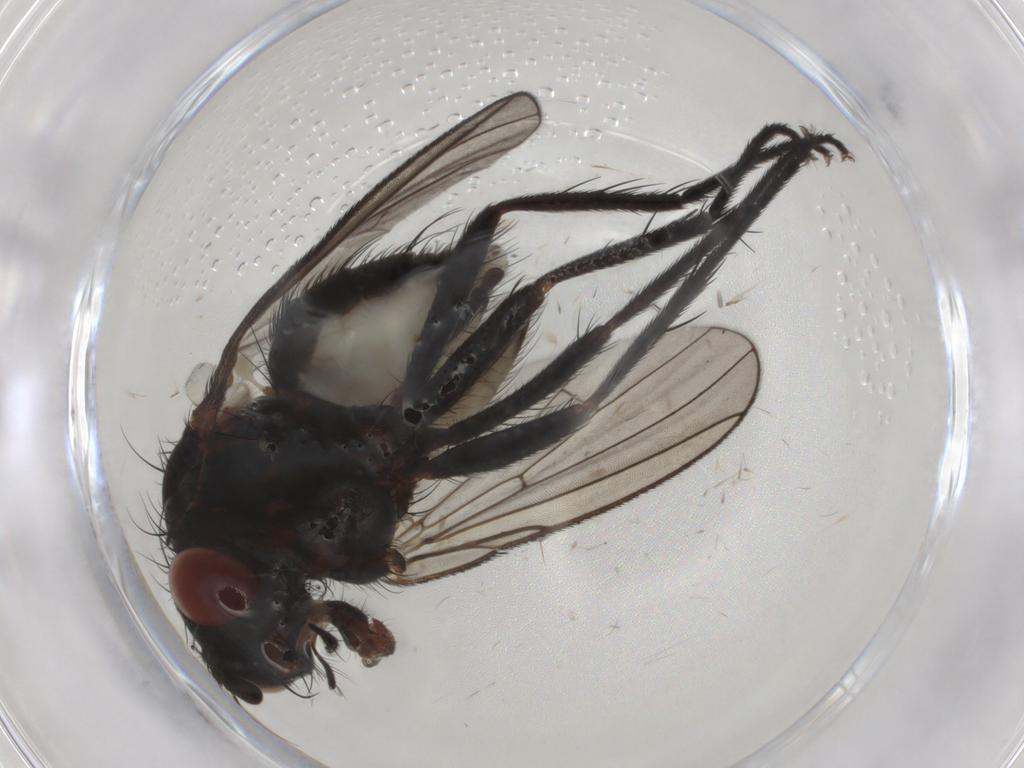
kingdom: Animalia
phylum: Arthropoda
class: Insecta
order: Diptera
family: Anthomyiidae
